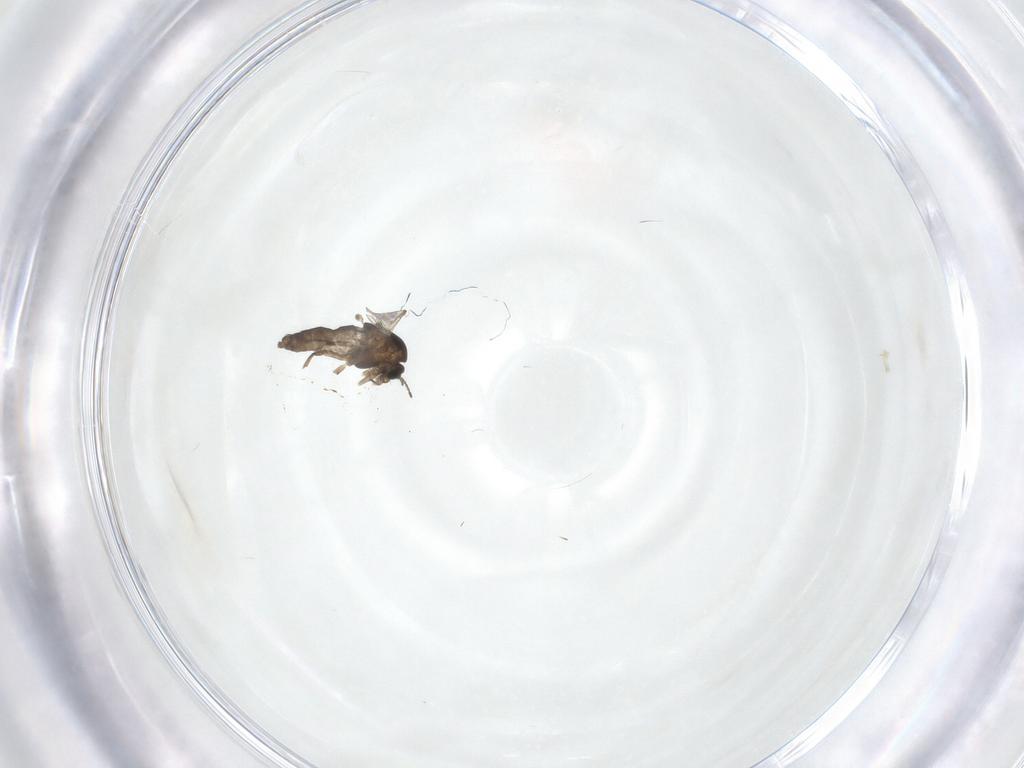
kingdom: Animalia
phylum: Arthropoda
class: Insecta
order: Diptera
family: Chironomidae
